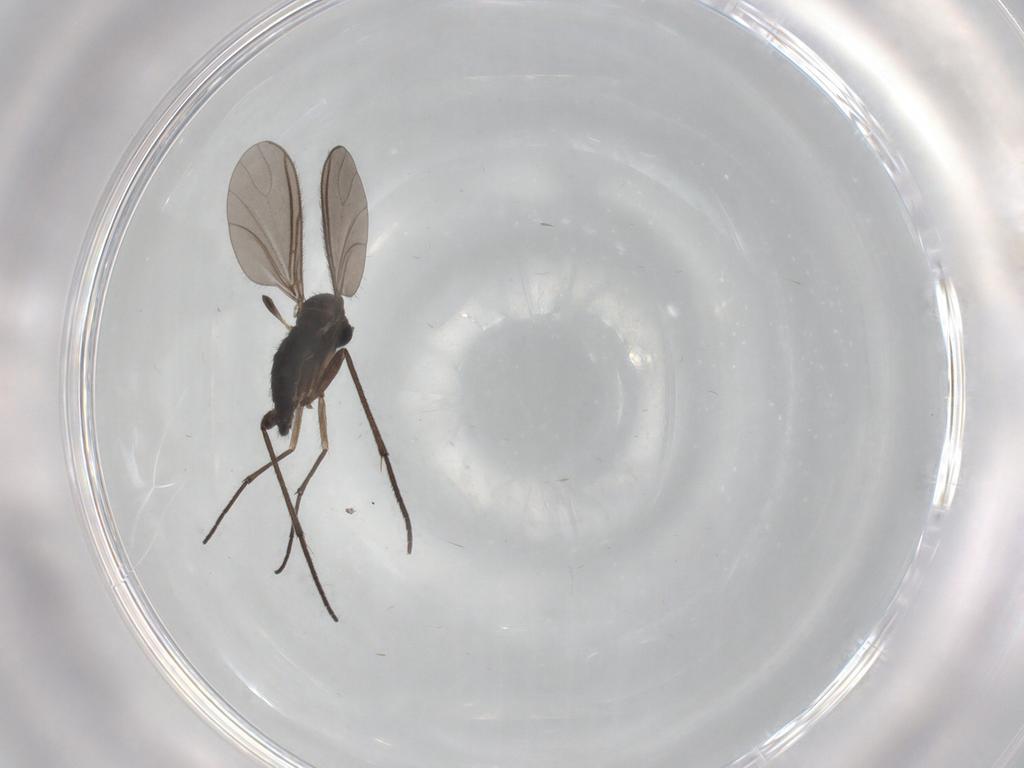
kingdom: Animalia
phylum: Arthropoda
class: Insecta
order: Diptera
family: Sciaridae
